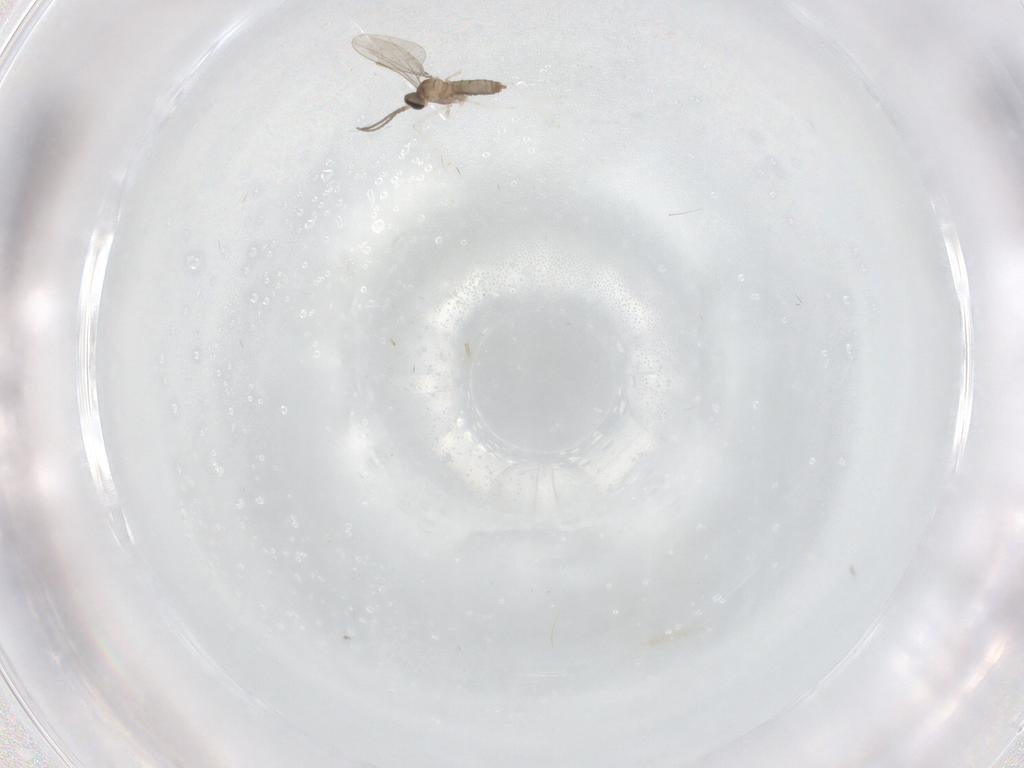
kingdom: Animalia
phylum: Arthropoda
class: Insecta
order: Diptera
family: Cecidomyiidae
